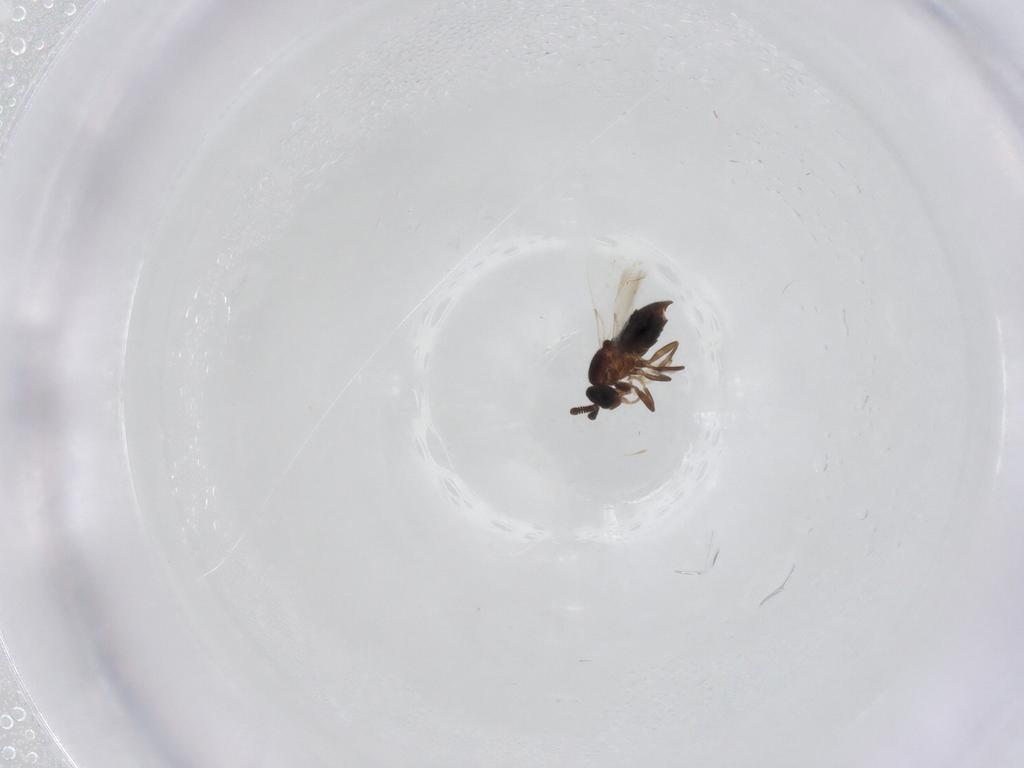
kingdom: Animalia
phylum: Arthropoda
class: Insecta
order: Diptera
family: Scatopsidae
